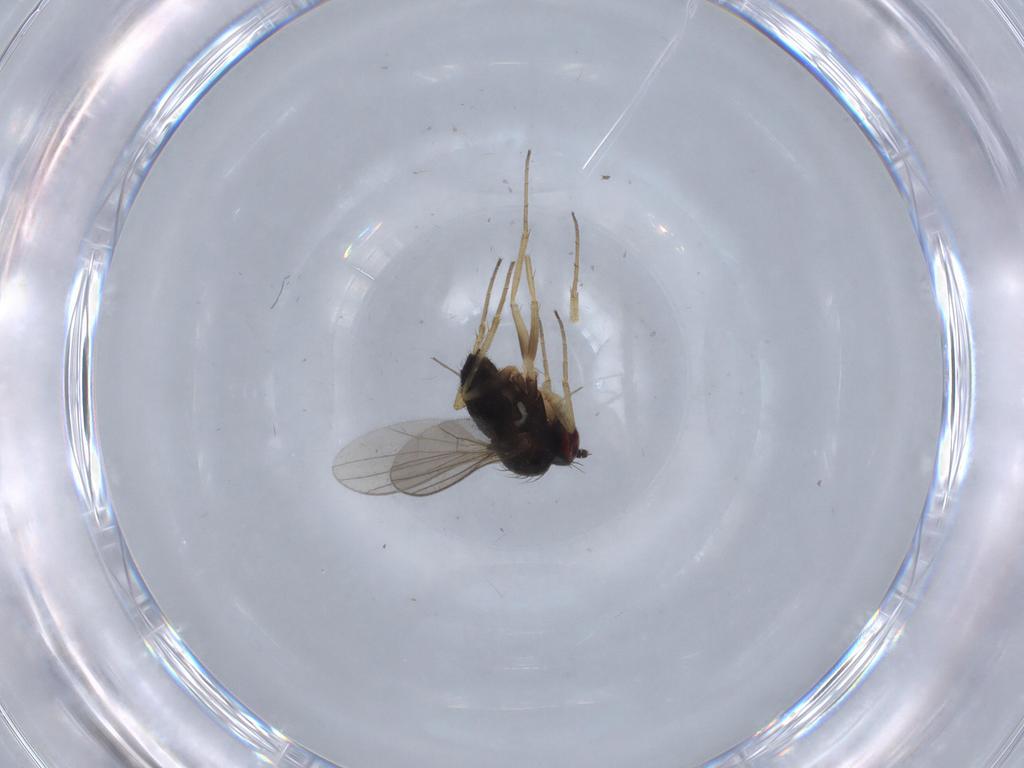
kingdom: Animalia
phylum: Arthropoda
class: Insecta
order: Diptera
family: Dolichopodidae
